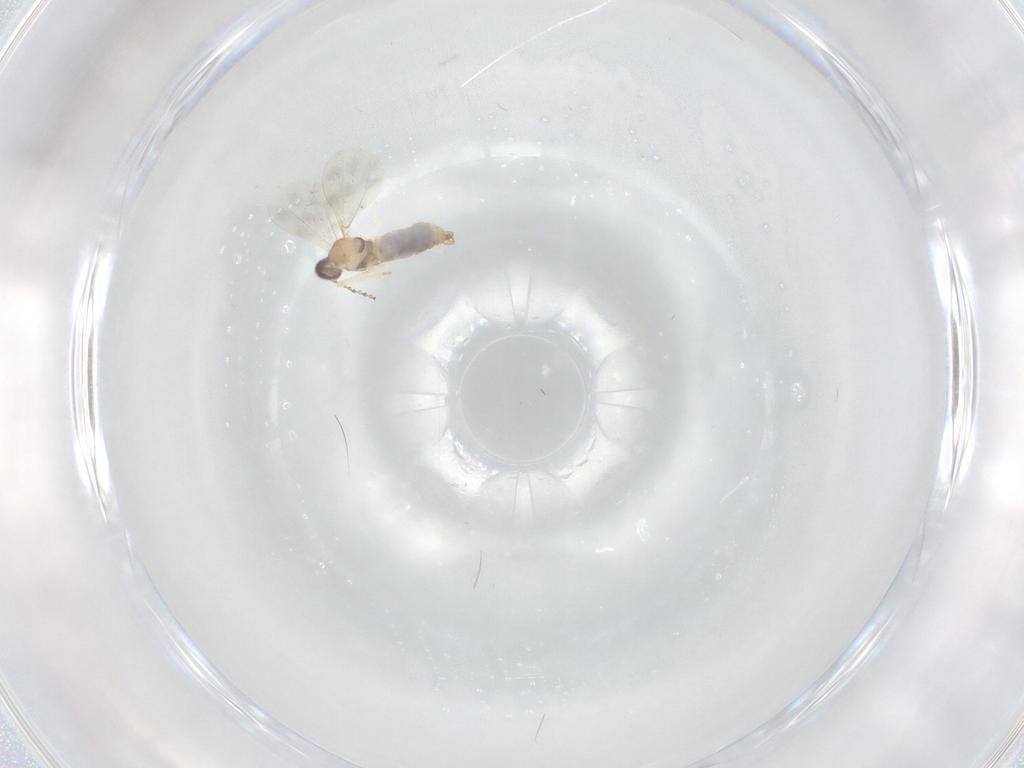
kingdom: Animalia
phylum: Arthropoda
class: Insecta
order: Diptera
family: Cecidomyiidae
